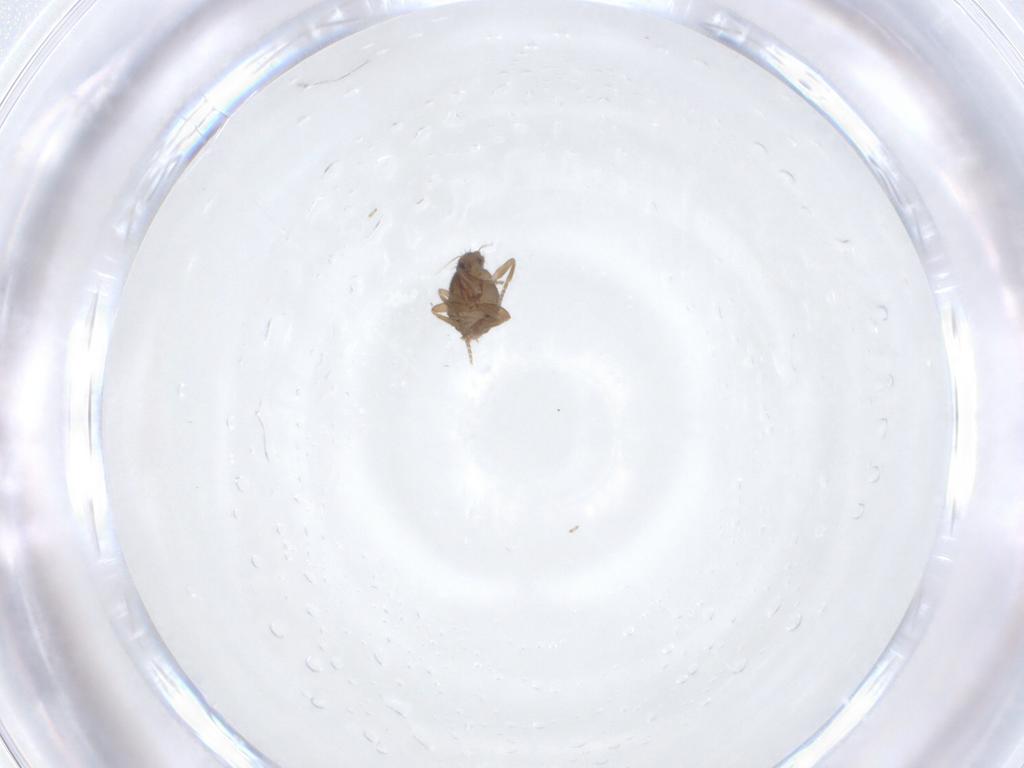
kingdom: Animalia
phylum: Arthropoda
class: Insecta
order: Diptera
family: Phoridae
